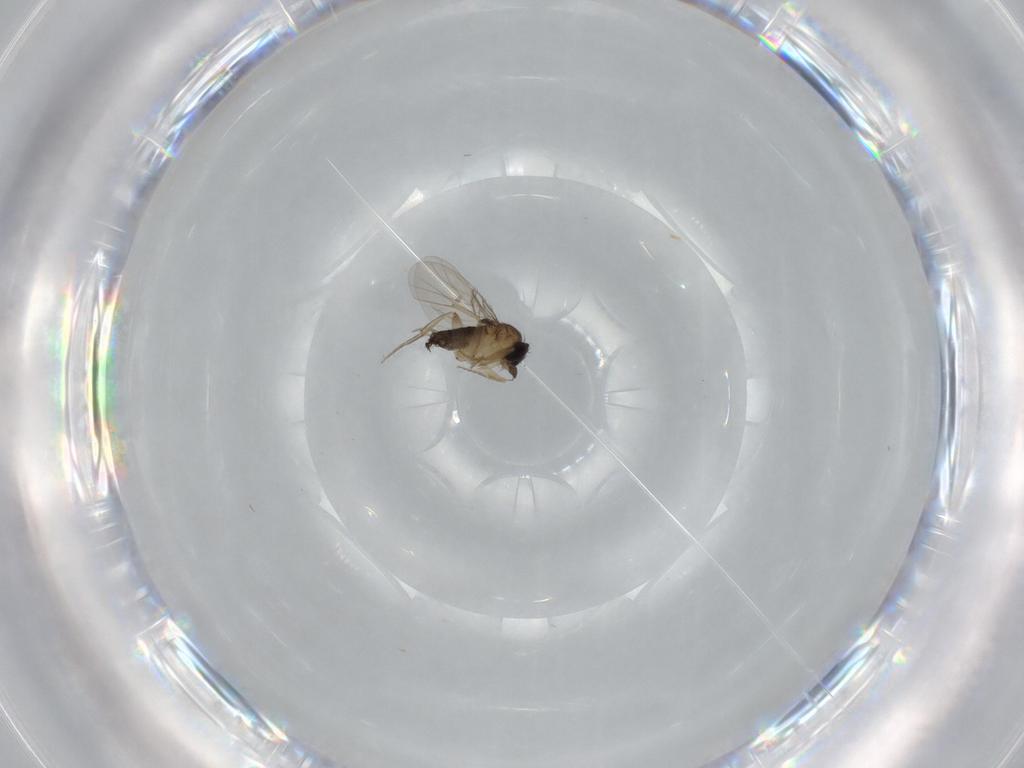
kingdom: Animalia
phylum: Arthropoda
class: Insecta
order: Diptera
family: Phoridae
